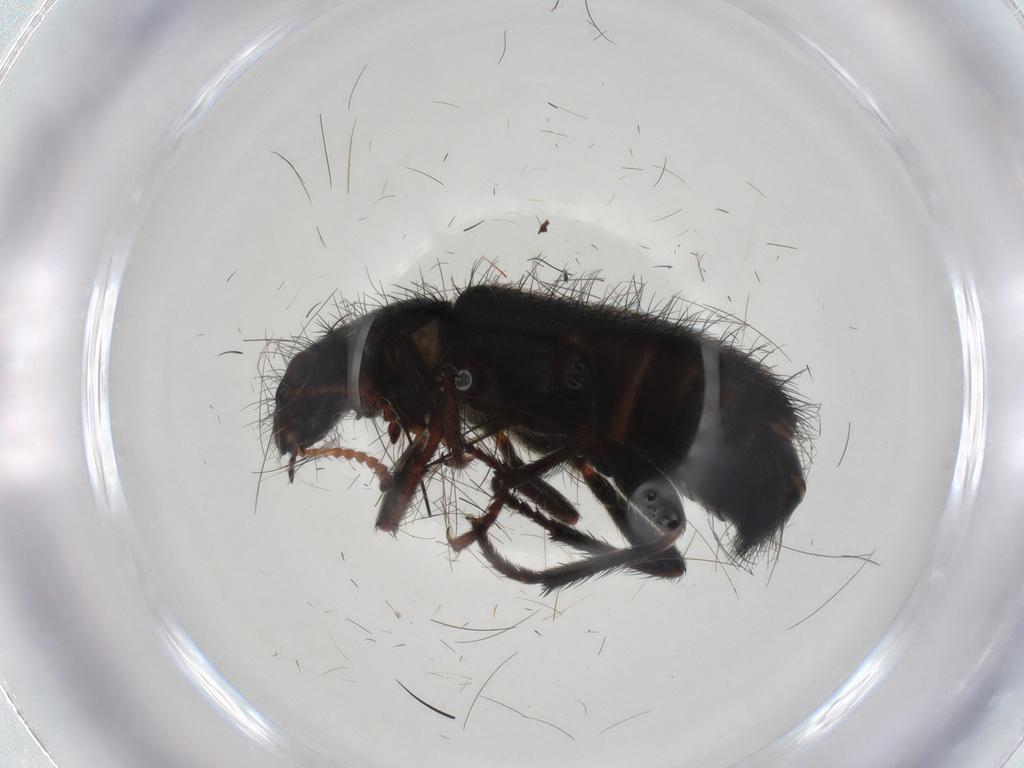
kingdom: Animalia
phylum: Arthropoda
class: Insecta
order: Coleoptera
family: Melyridae
